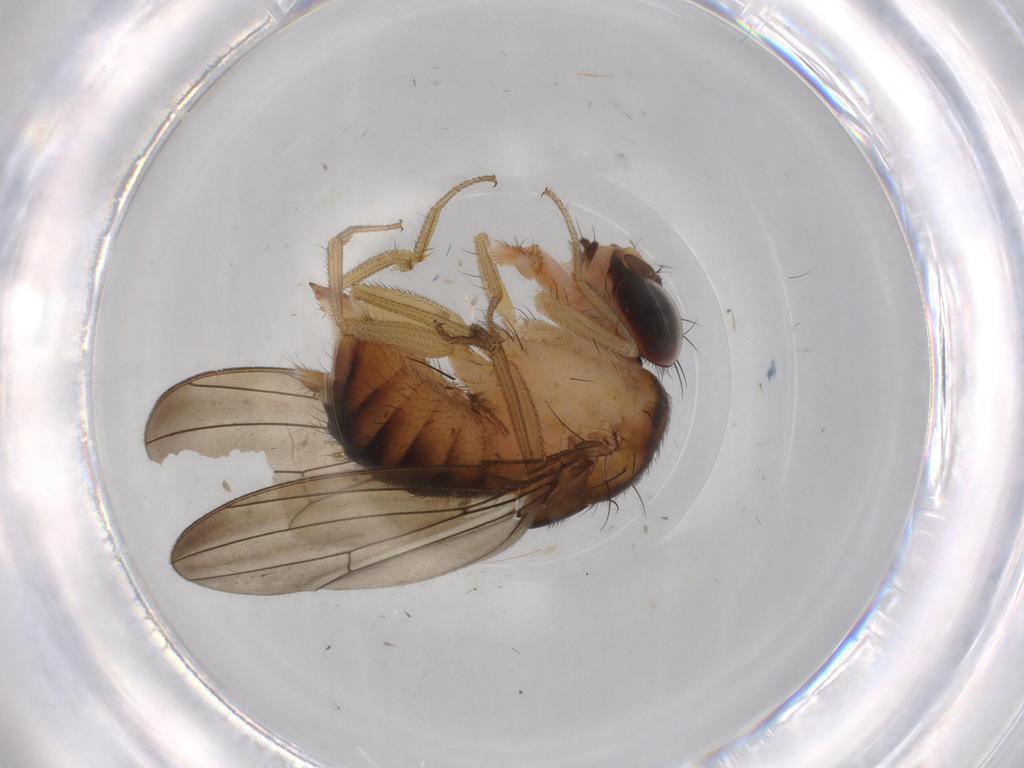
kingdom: Animalia
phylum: Arthropoda
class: Insecta
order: Diptera
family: Drosophilidae
